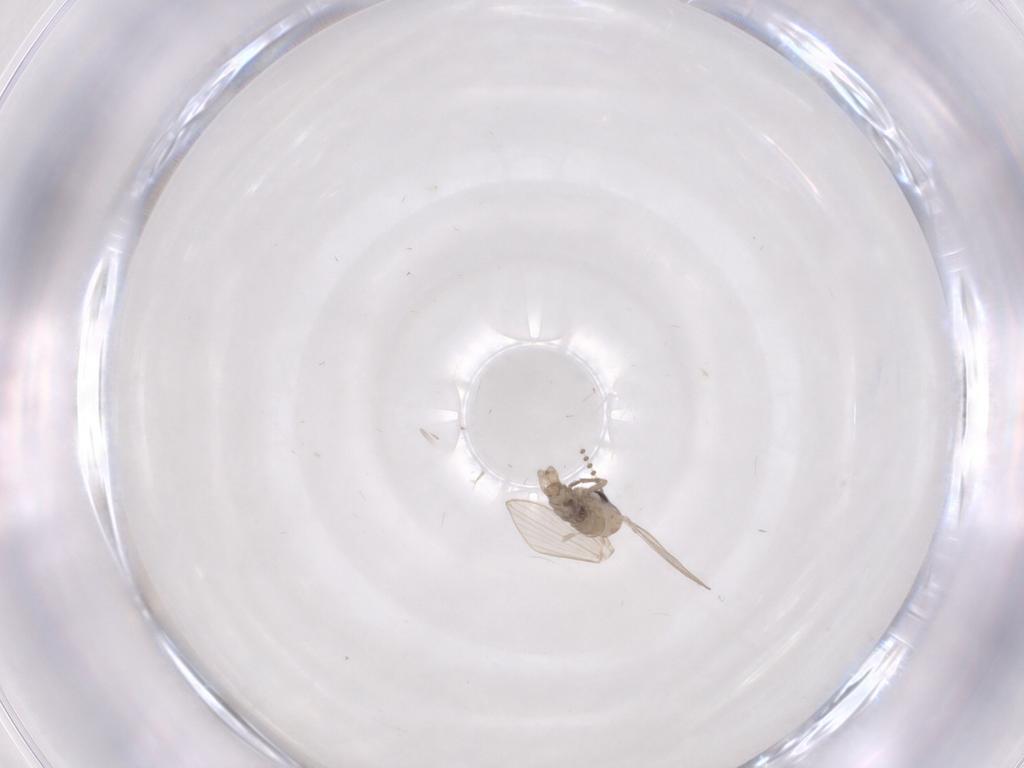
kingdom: Animalia
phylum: Arthropoda
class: Insecta
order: Diptera
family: Psychodidae
